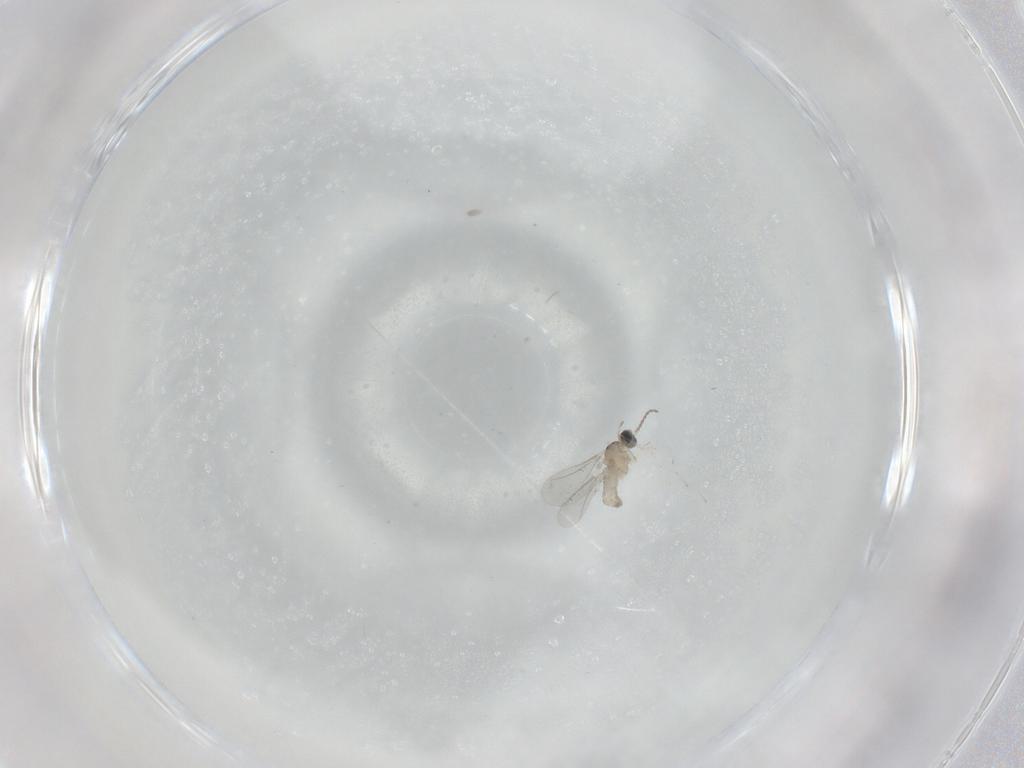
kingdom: Animalia
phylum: Arthropoda
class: Insecta
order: Diptera
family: Cecidomyiidae
